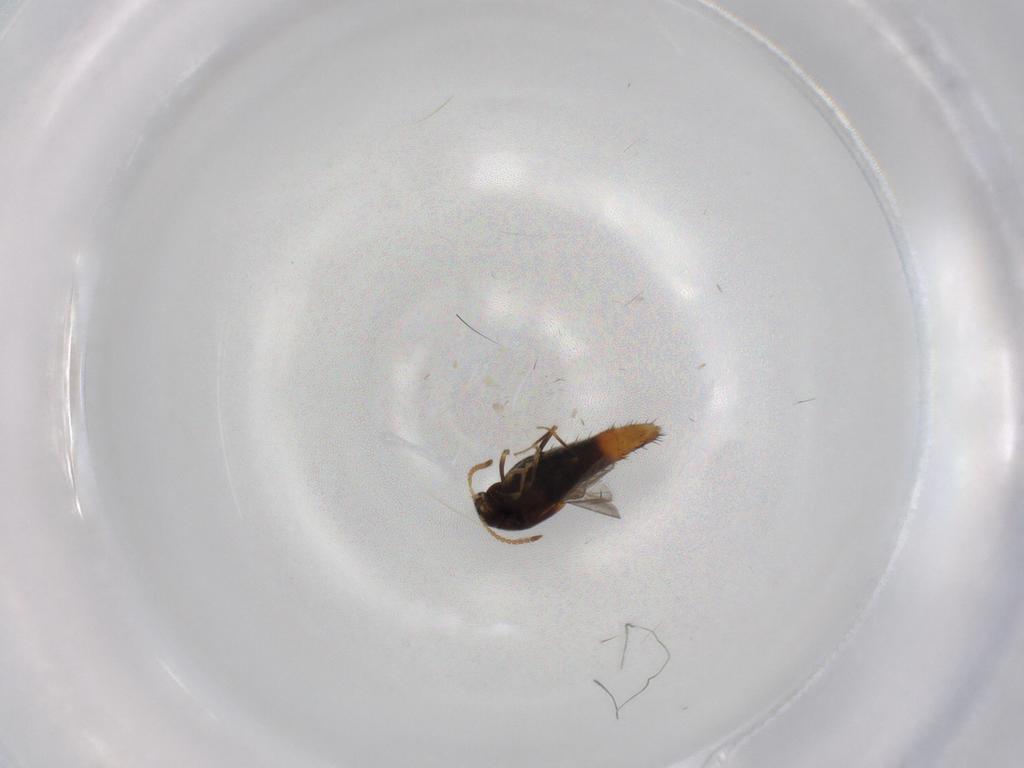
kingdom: Animalia
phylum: Arthropoda
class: Insecta
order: Coleoptera
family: Staphylinidae
